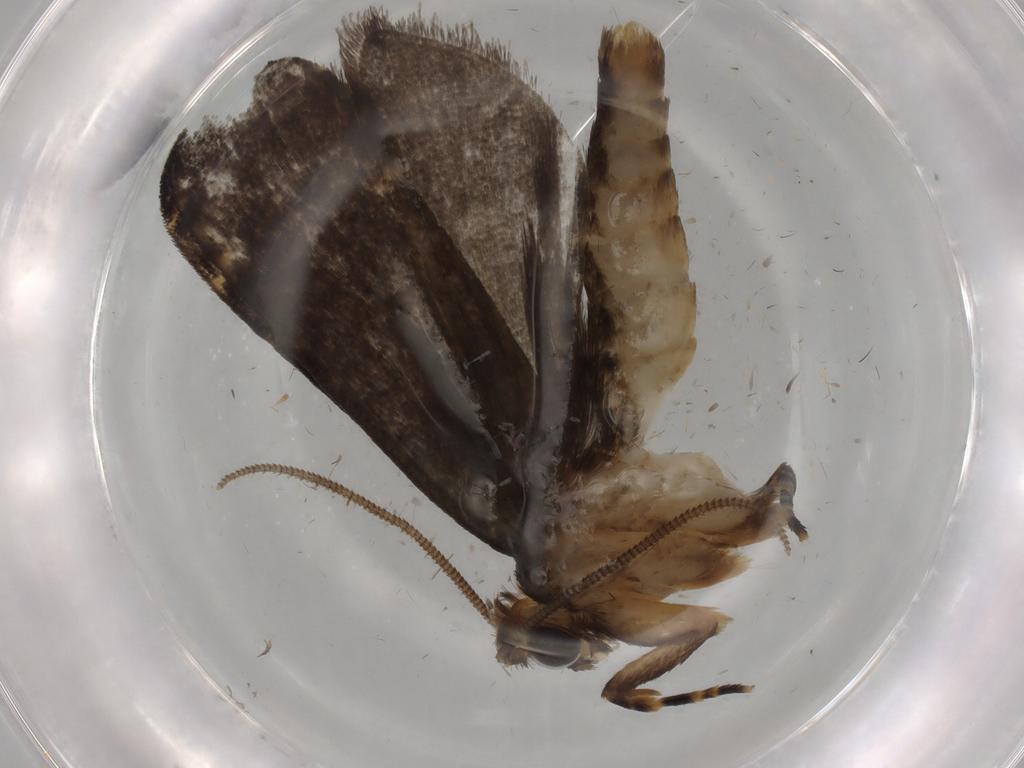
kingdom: Animalia
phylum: Arthropoda
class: Insecta
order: Lepidoptera
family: Tineidae
